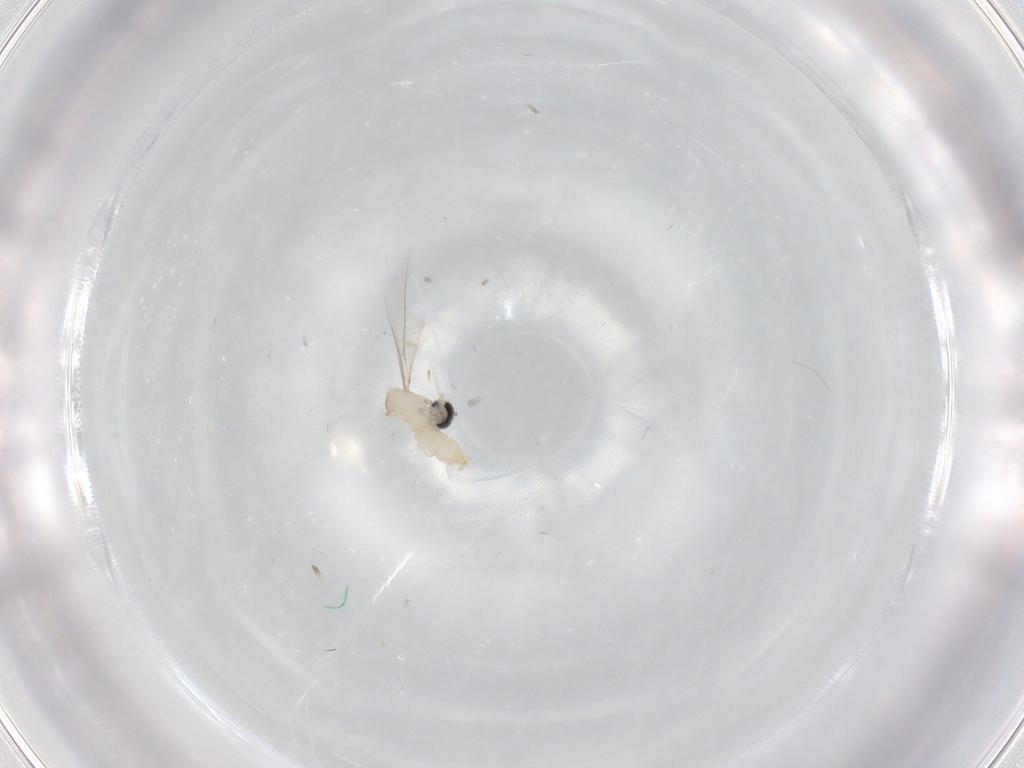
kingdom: Animalia
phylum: Arthropoda
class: Insecta
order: Diptera
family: Cecidomyiidae
